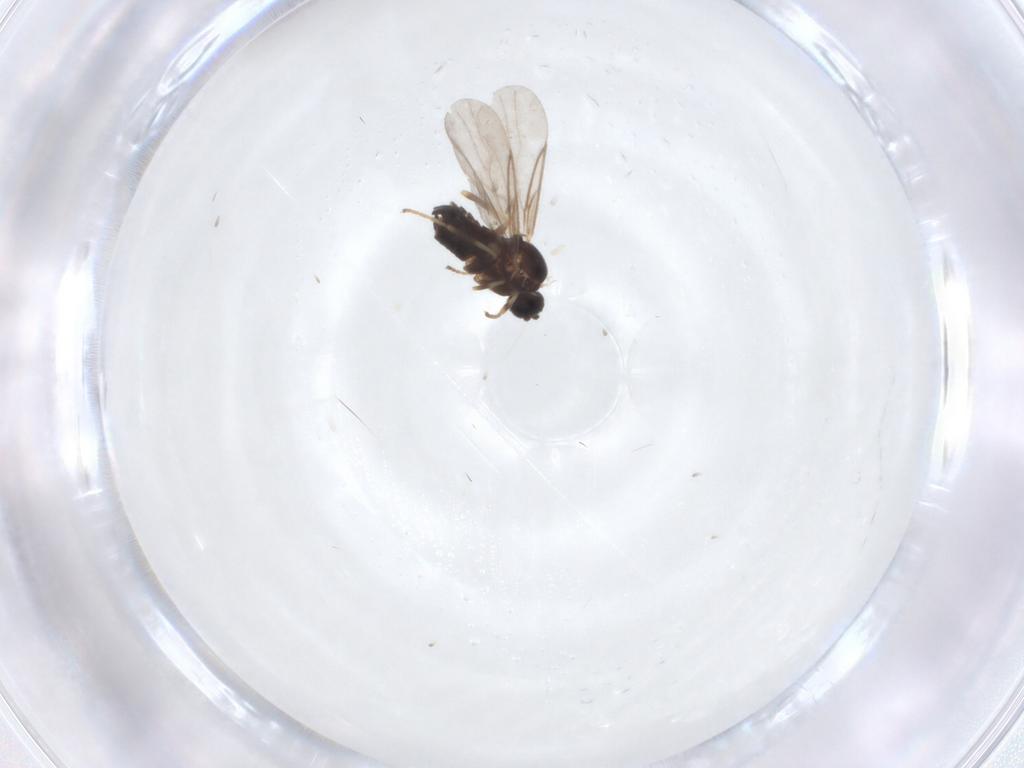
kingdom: Animalia
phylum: Arthropoda
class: Insecta
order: Diptera
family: Scatopsidae
